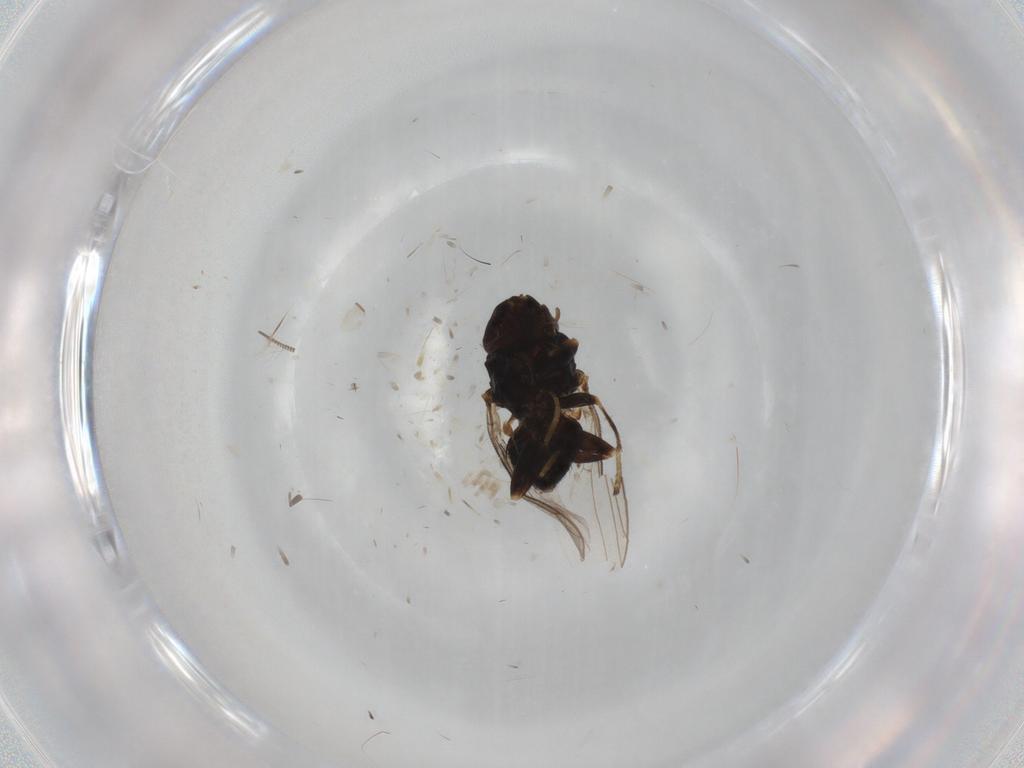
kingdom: Animalia
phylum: Arthropoda
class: Insecta
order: Diptera
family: Chloropidae
